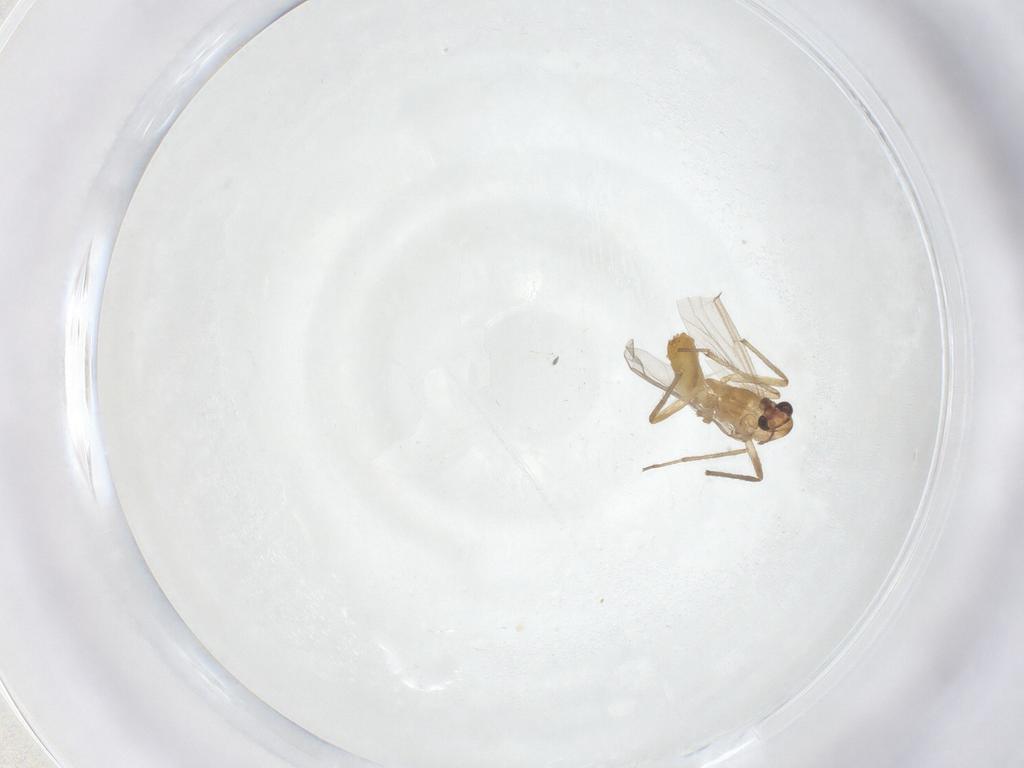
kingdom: Animalia
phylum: Arthropoda
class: Insecta
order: Diptera
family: Chironomidae
